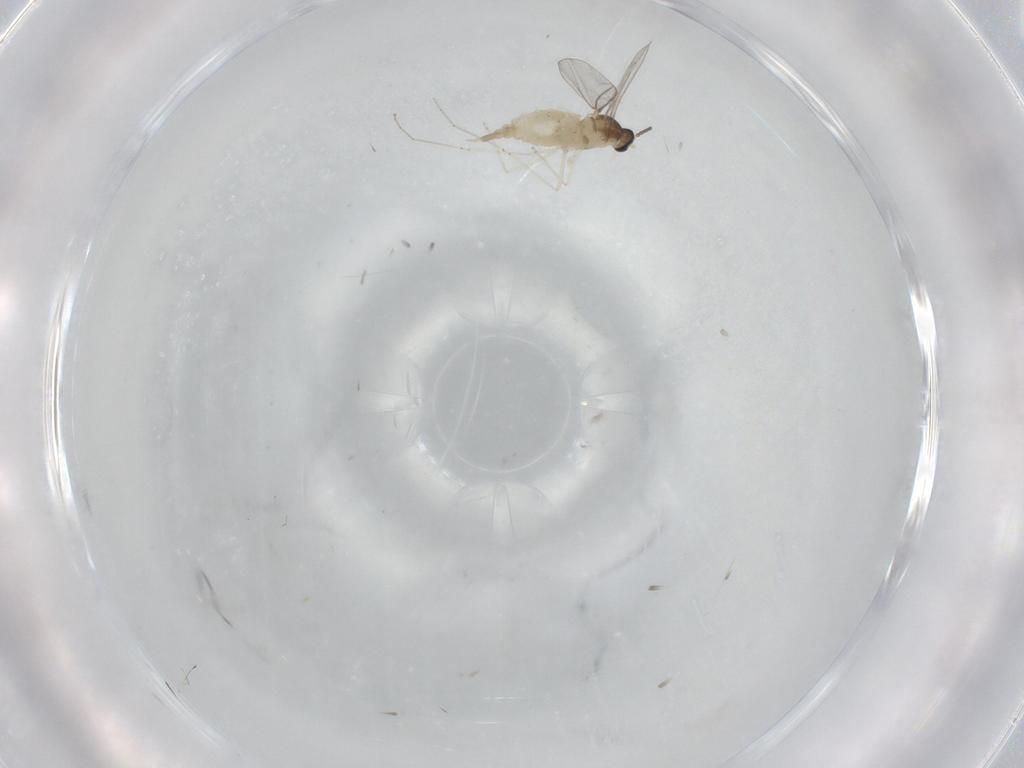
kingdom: Animalia
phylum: Arthropoda
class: Insecta
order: Diptera
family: Cecidomyiidae
